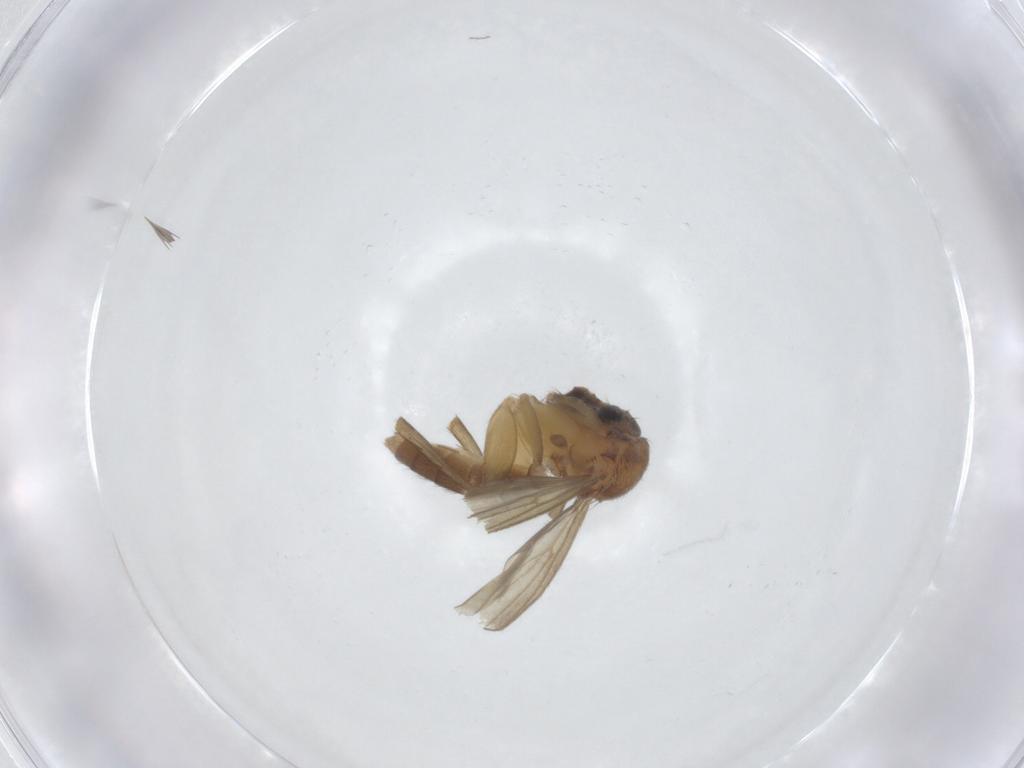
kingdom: Animalia
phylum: Arthropoda
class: Insecta
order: Diptera
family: Mycetophilidae
